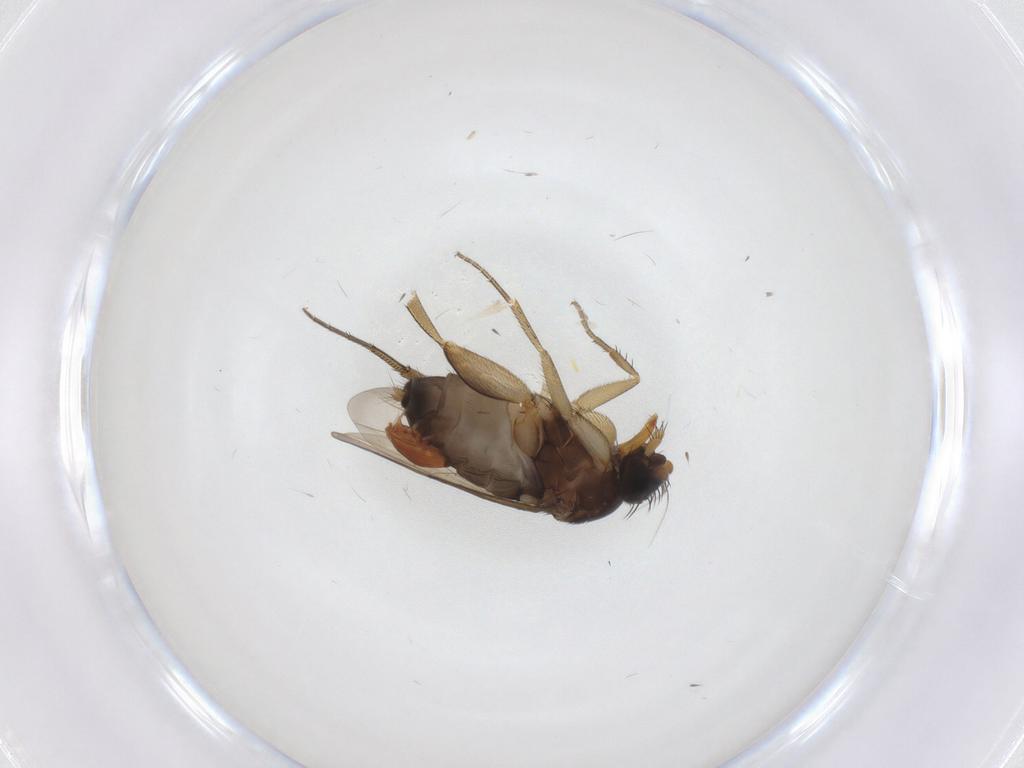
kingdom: Animalia
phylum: Arthropoda
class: Insecta
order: Diptera
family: Phoridae
